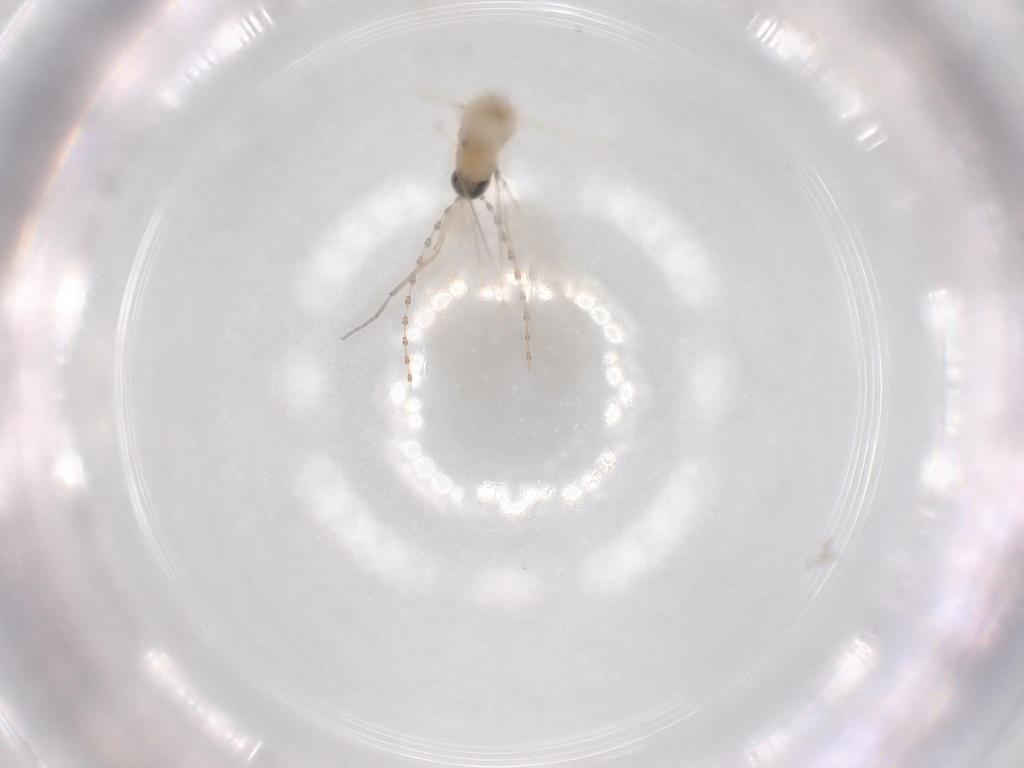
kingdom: Animalia
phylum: Arthropoda
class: Insecta
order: Diptera
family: Cecidomyiidae
